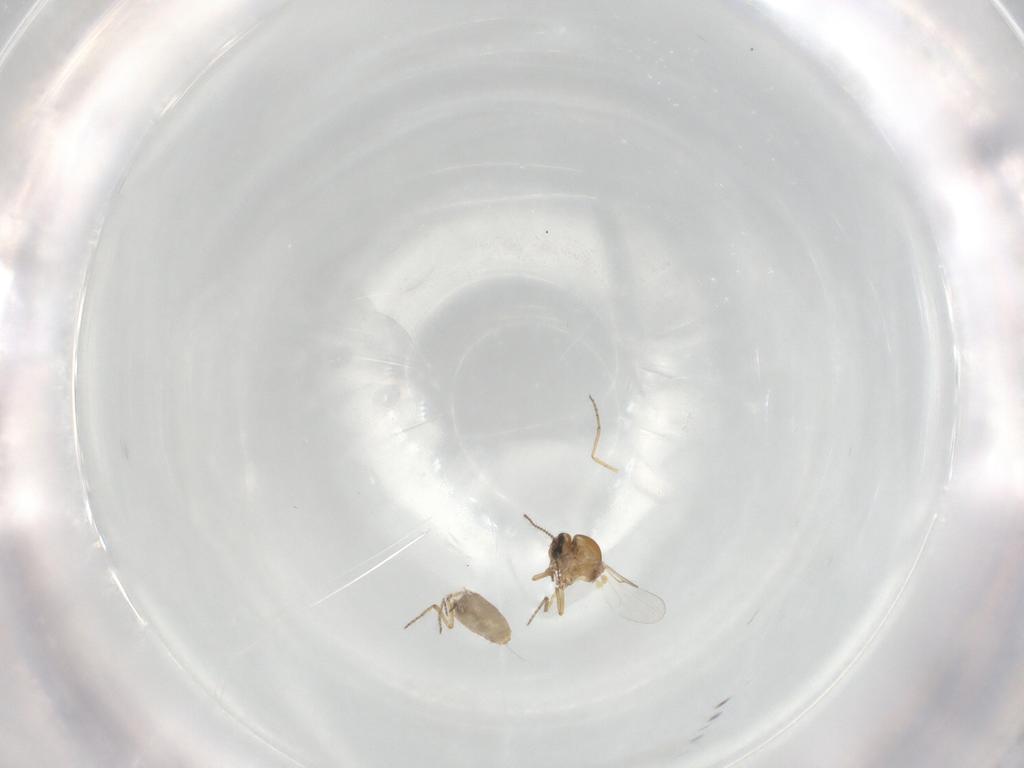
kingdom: Animalia
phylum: Arthropoda
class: Insecta
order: Diptera
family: Ceratopogonidae
